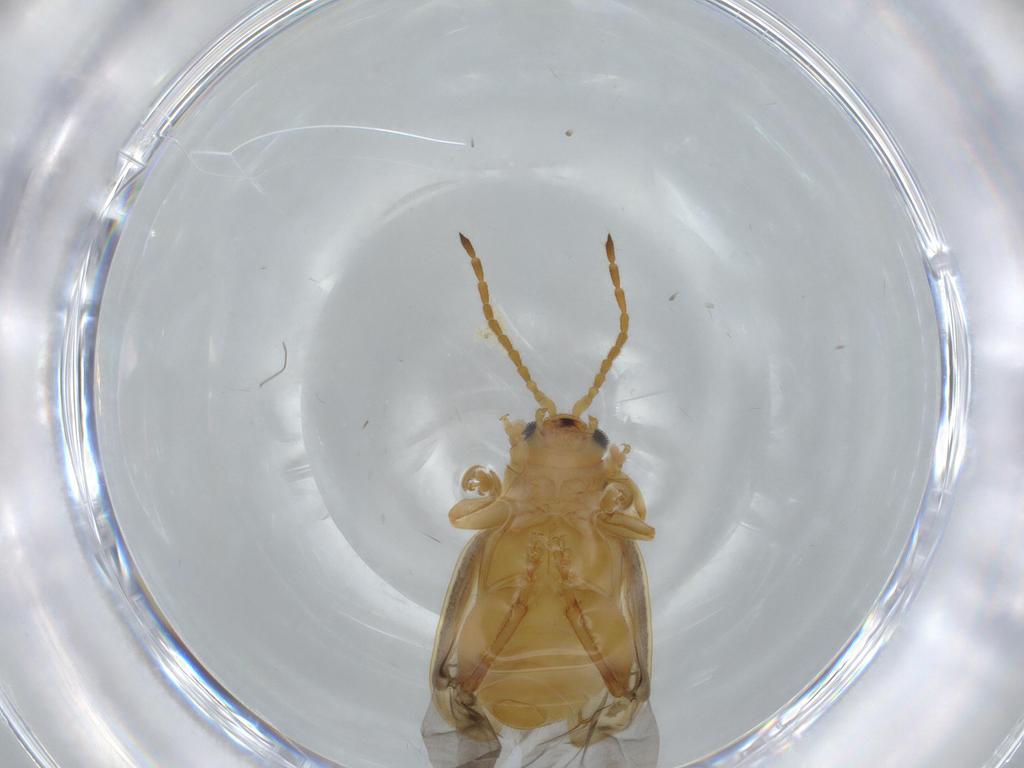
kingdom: Animalia
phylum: Arthropoda
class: Insecta
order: Coleoptera
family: Chrysomelidae
